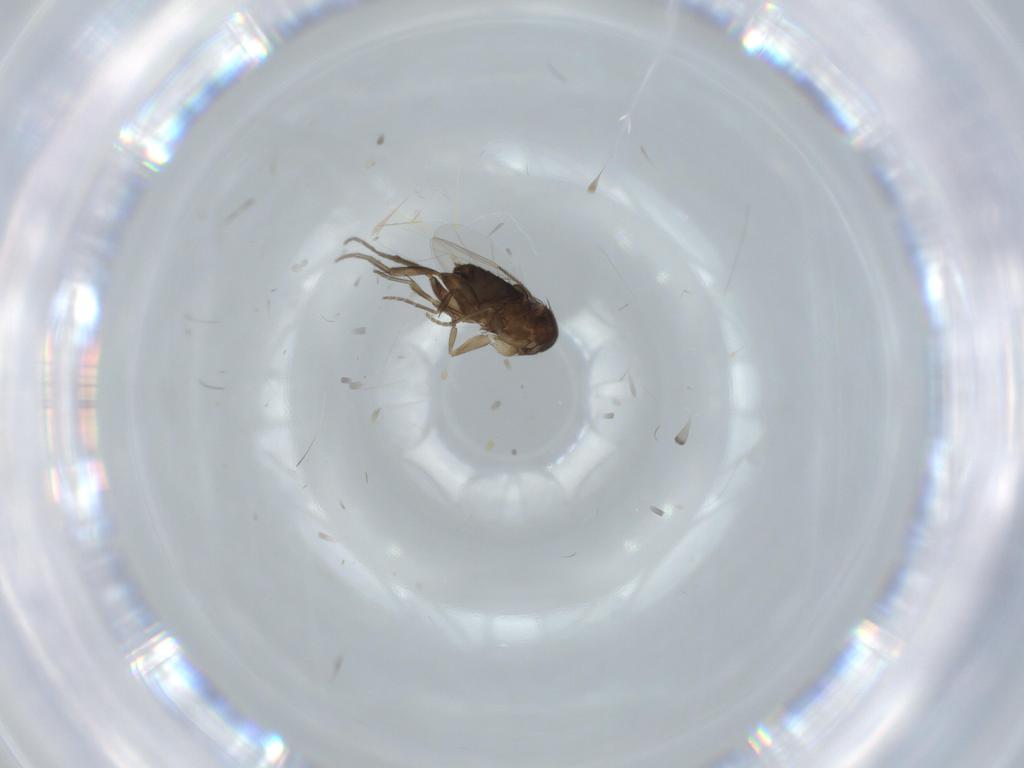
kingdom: Animalia
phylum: Arthropoda
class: Insecta
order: Diptera
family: Phoridae
